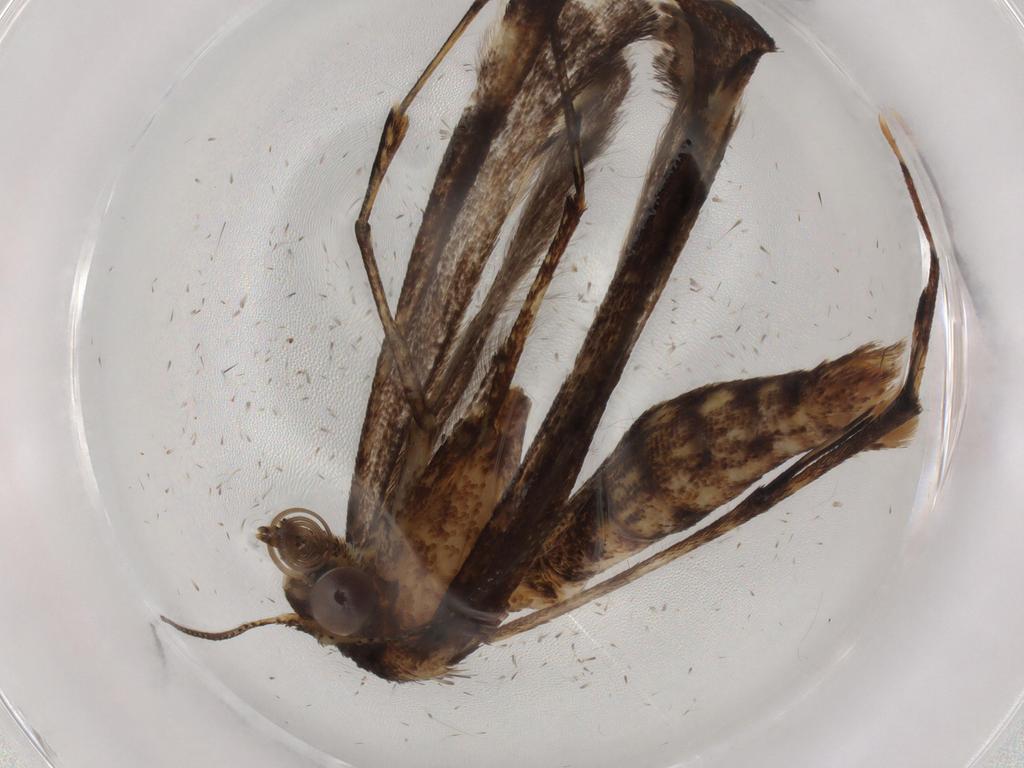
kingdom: Animalia
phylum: Arthropoda
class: Insecta
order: Lepidoptera
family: Pterophoridae
